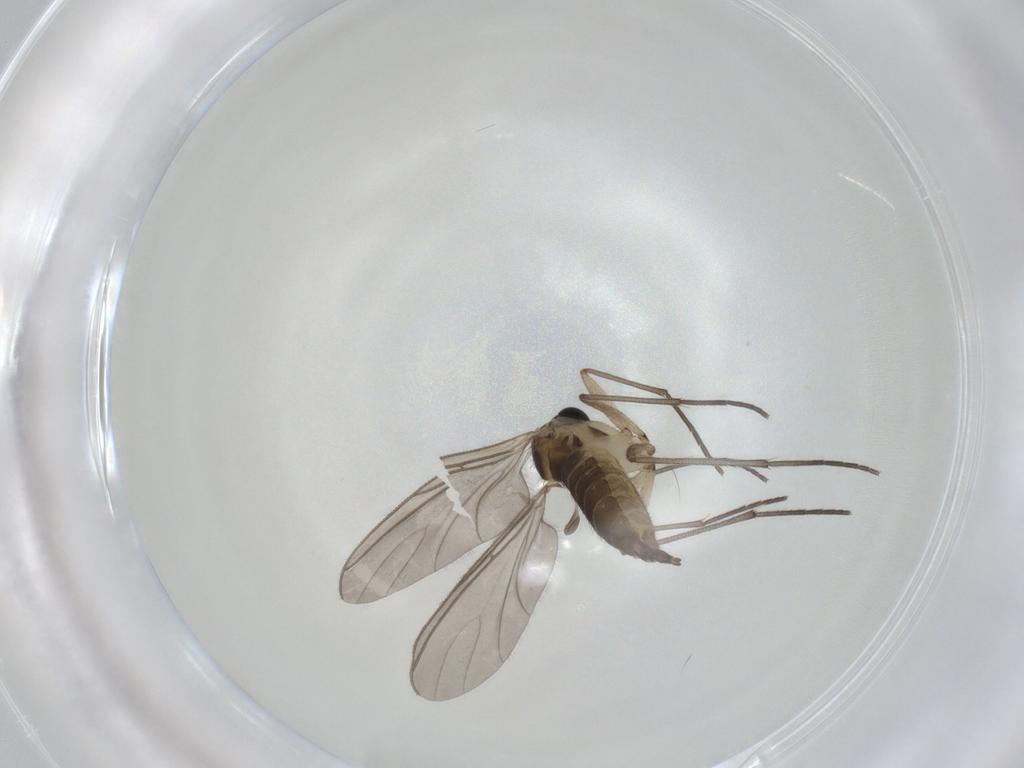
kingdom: Animalia
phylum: Arthropoda
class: Insecta
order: Diptera
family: Sciaridae
